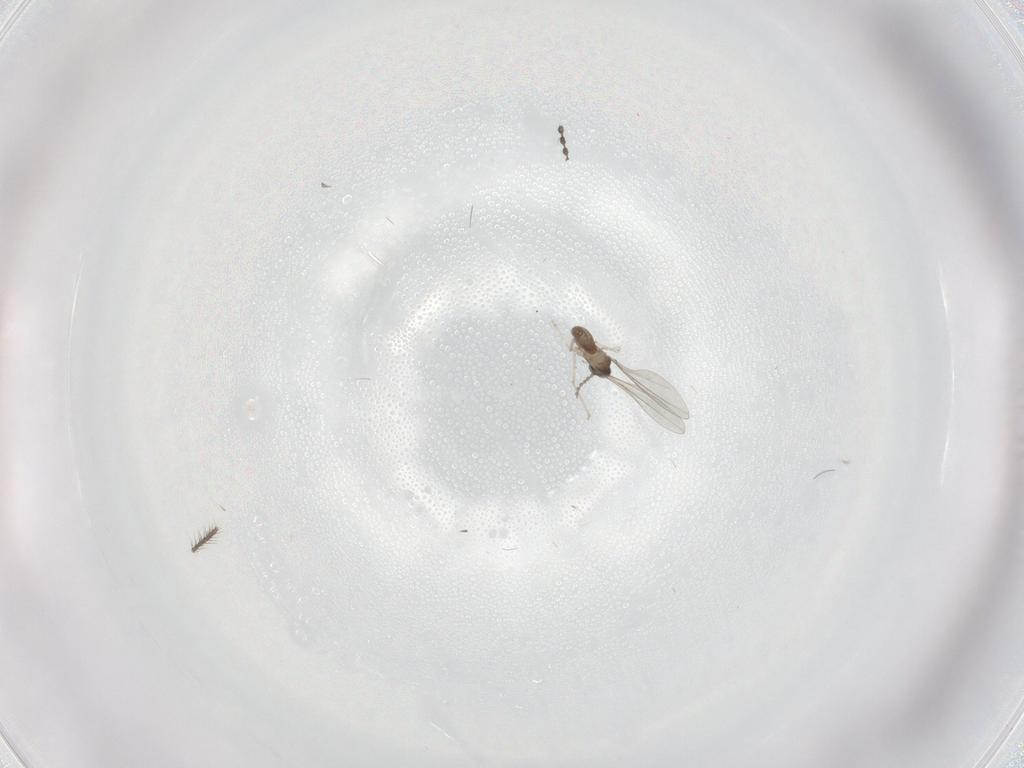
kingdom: Animalia
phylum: Arthropoda
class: Insecta
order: Diptera
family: Cecidomyiidae
